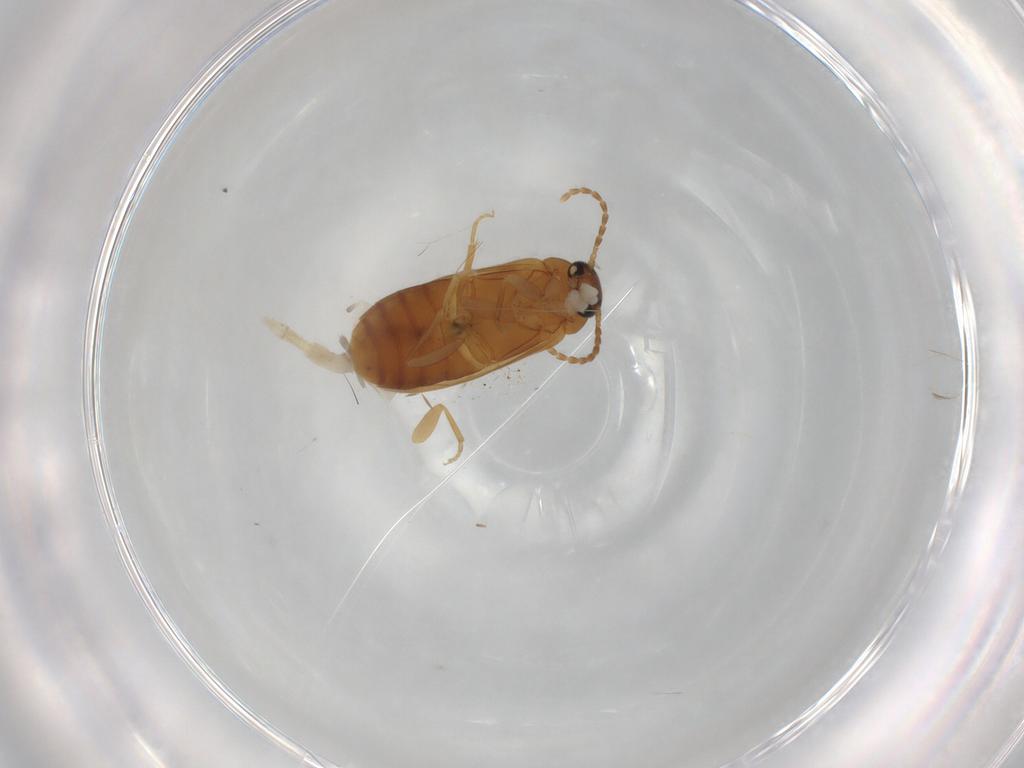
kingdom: Animalia
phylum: Arthropoda
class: Insecta
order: Coleoptera
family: Scraptiidae
